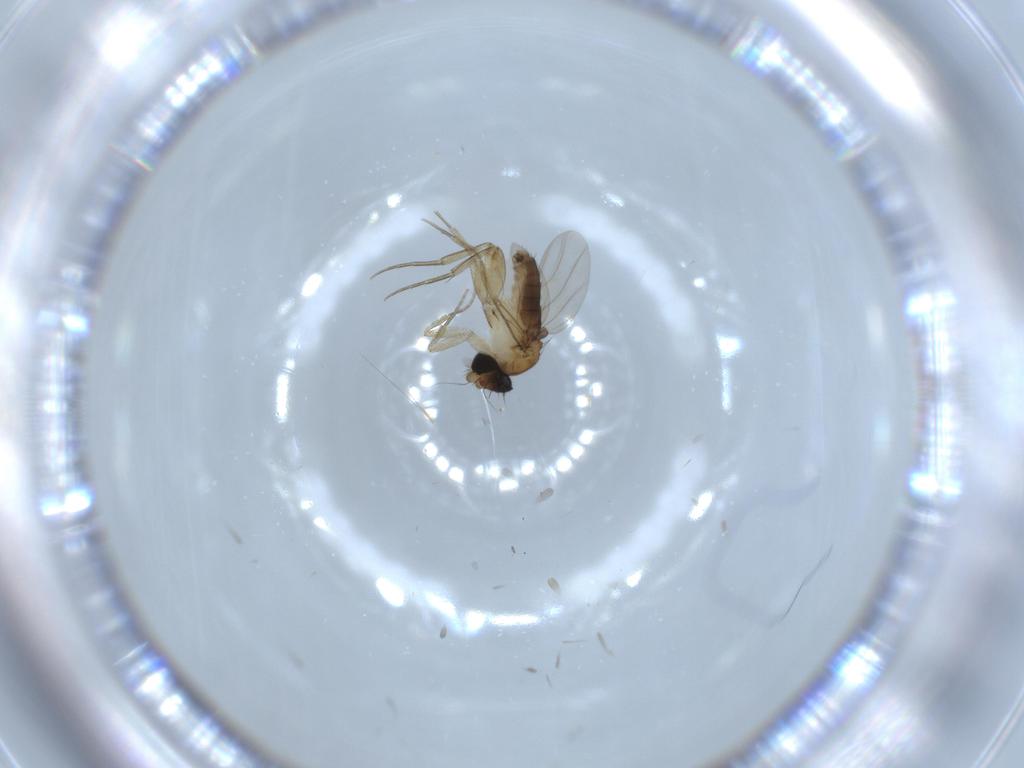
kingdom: Animalia
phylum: Arthropoda
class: Insecta
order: Diptera
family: Phoridae
